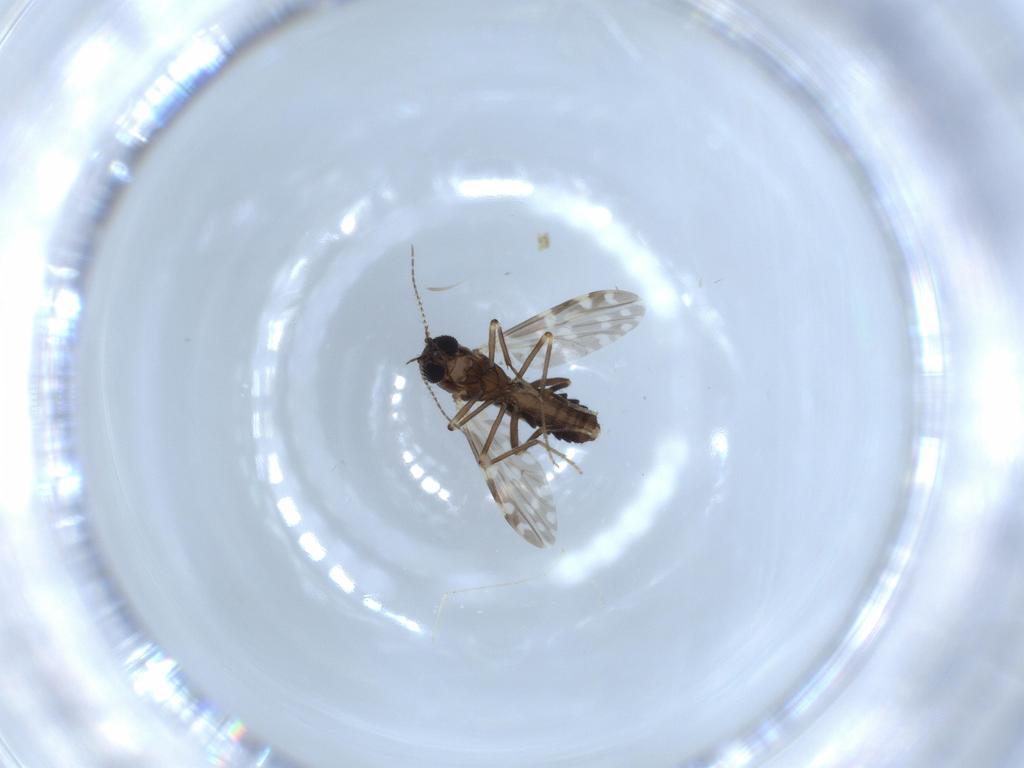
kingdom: Animalia
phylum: Arthropoda
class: Insecta
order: Diptera
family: Ceratopogonidae
